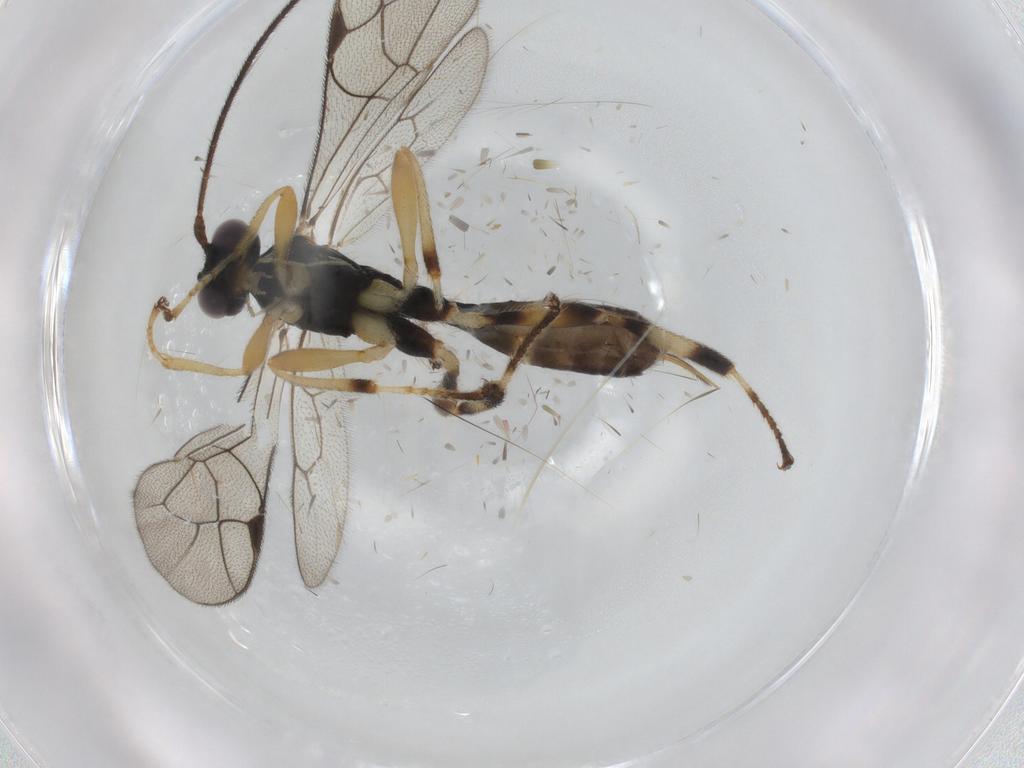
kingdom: Animalia
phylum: Arthropoda
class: Insecta
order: Hymenoptera
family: Ichneumonidae
